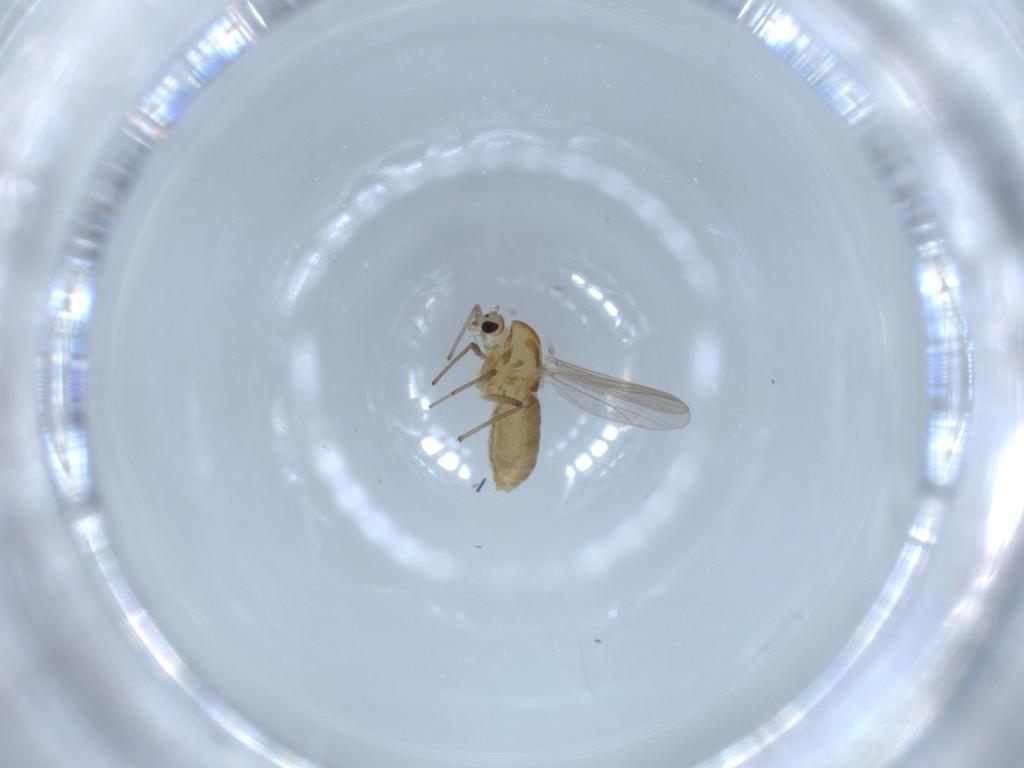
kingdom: Animalia
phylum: Arthropoda
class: Insecta
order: Diptera
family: Chironomidae
